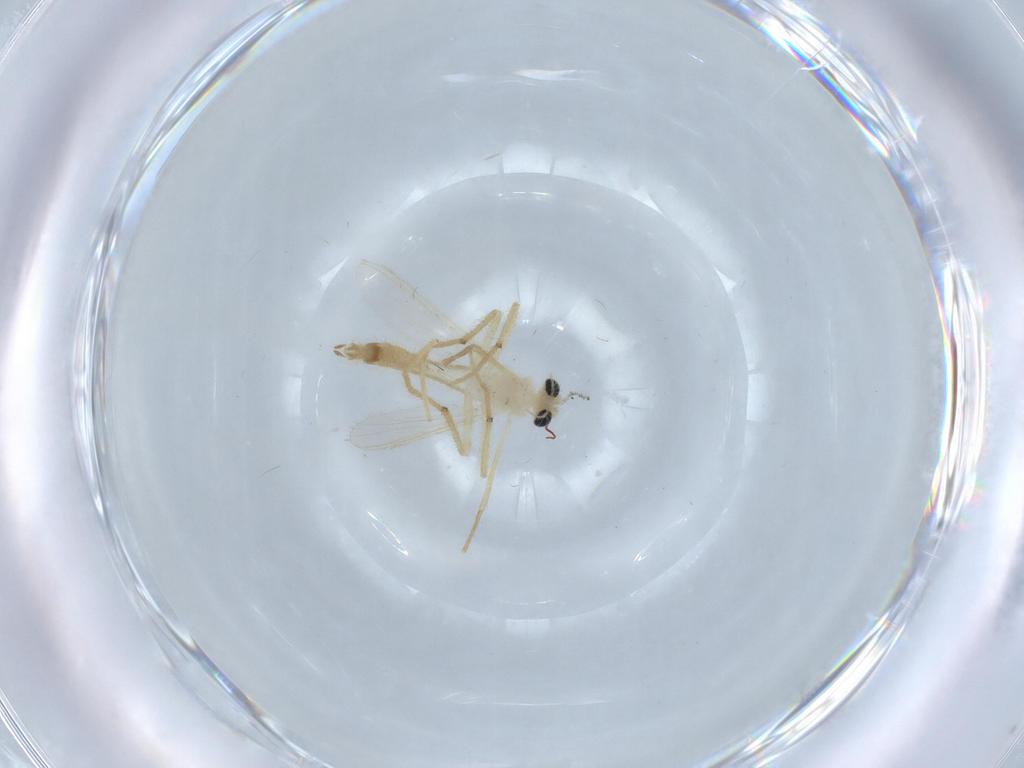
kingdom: Animalia
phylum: Arthropoda
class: Insecta
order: Diptera
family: Chironomidae
